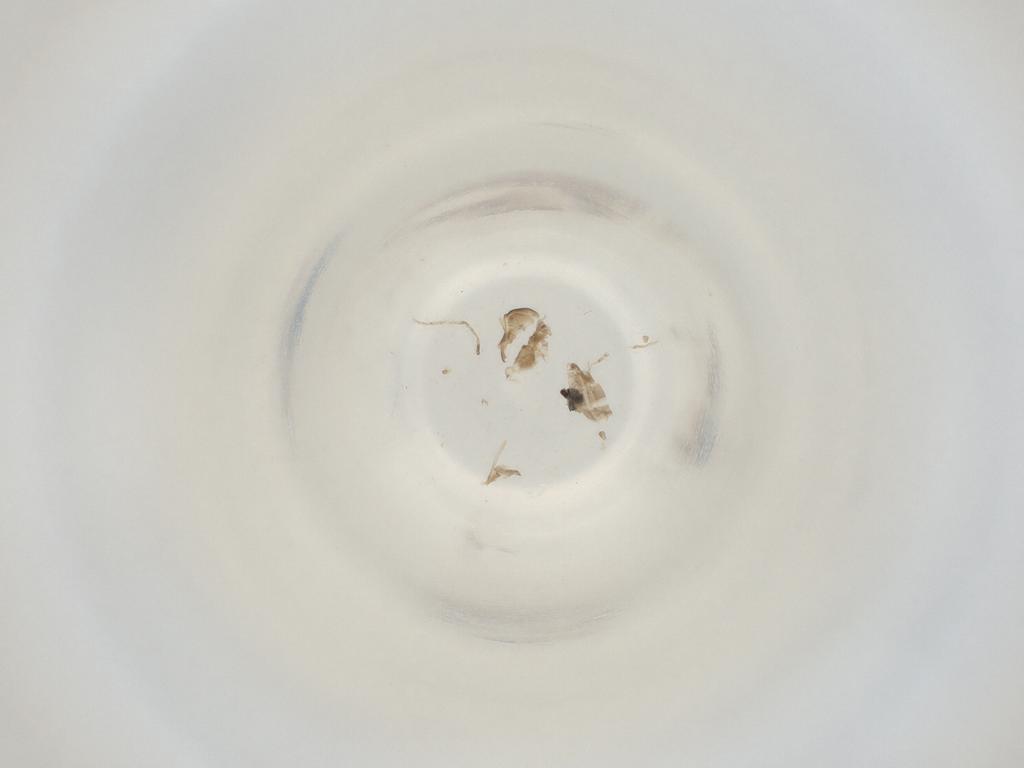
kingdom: Animalia
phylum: Arthropoda
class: Insecta
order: Diptera
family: Cecidomyiidae
